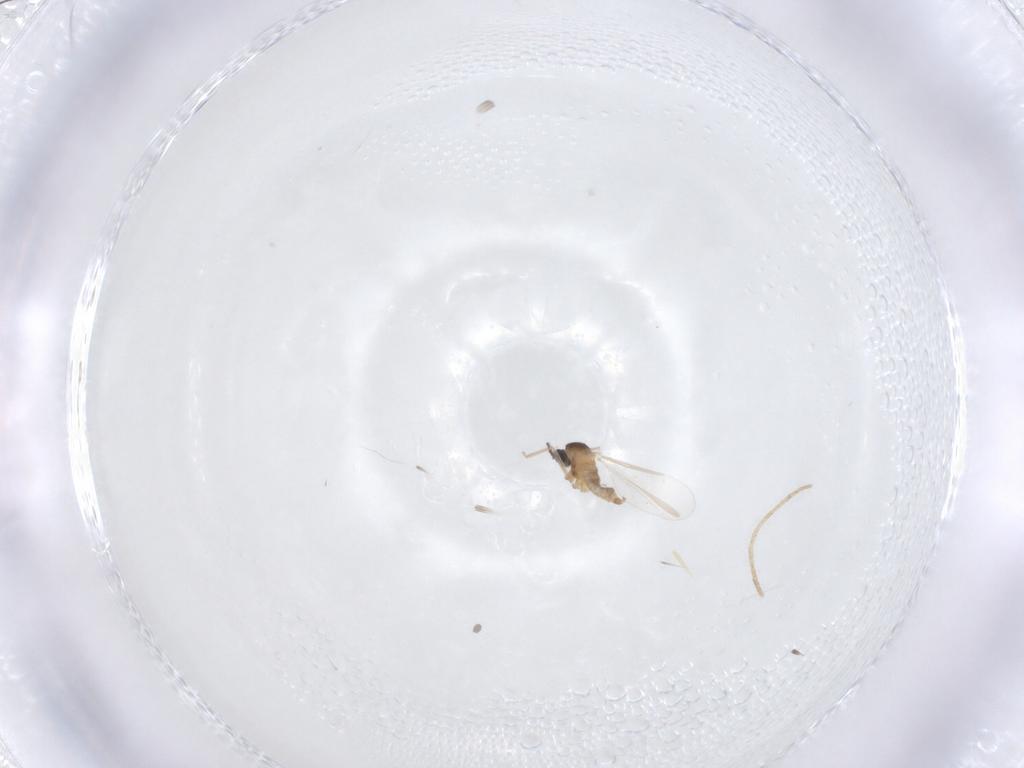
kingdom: Animalia
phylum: Arthropoda
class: Insecta
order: Diptera
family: Cecidomyiidae
